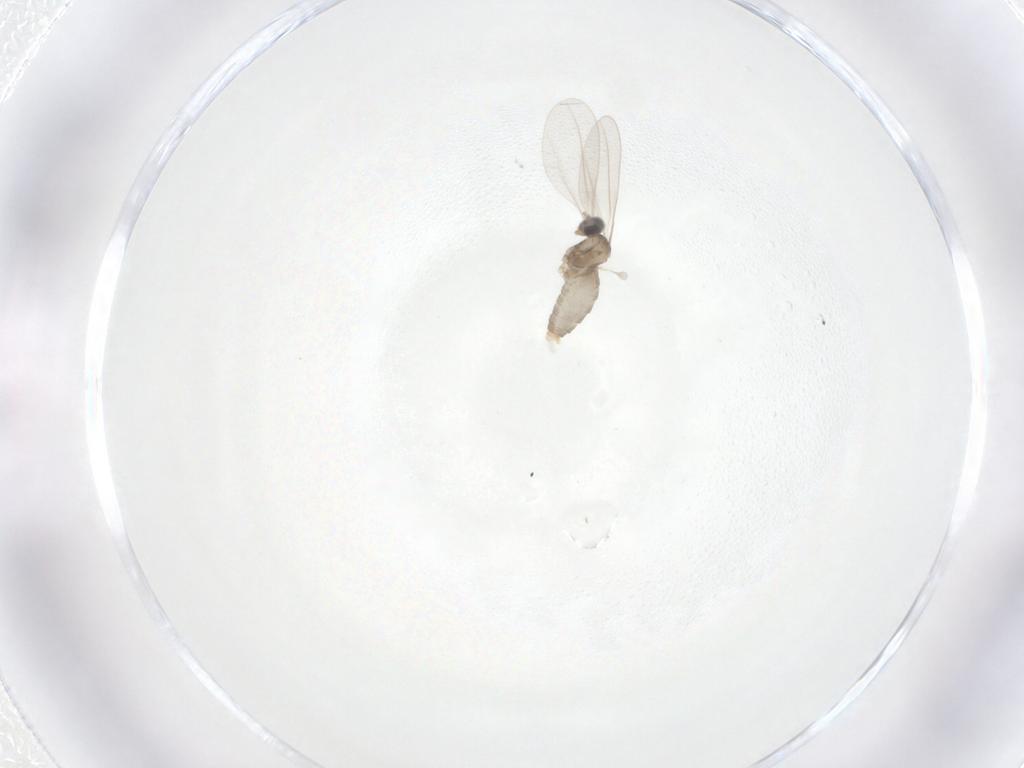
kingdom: Animalia
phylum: Arthropoda
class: Insecta
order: Diptera
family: Cecidomyiidae
